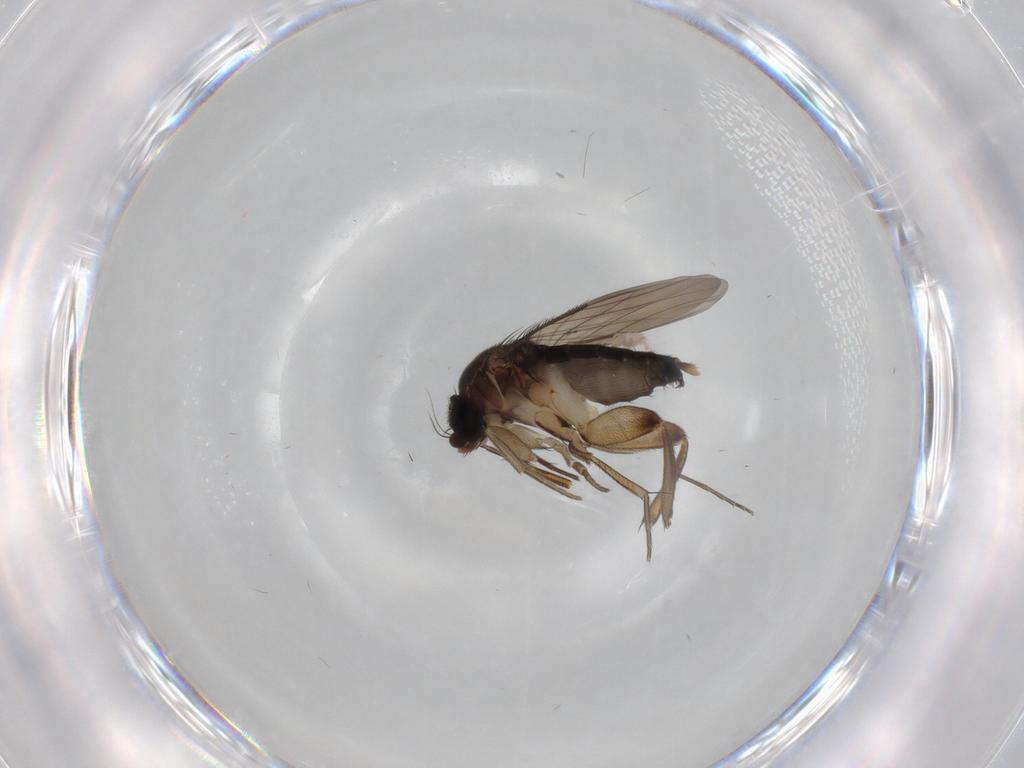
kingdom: Animalia
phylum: Arthropoda
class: Insecta
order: Diptera
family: Phoridae
